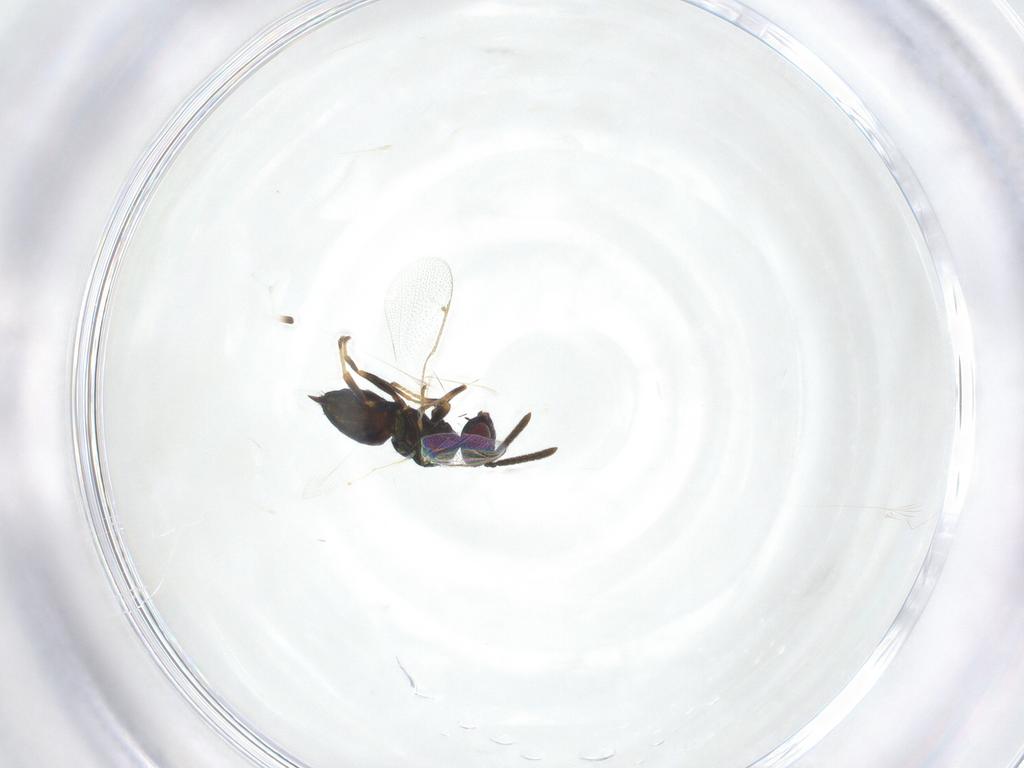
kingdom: Animalia
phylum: Arthropoda
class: Insecta
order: Hymenoptera
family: Torymidae
